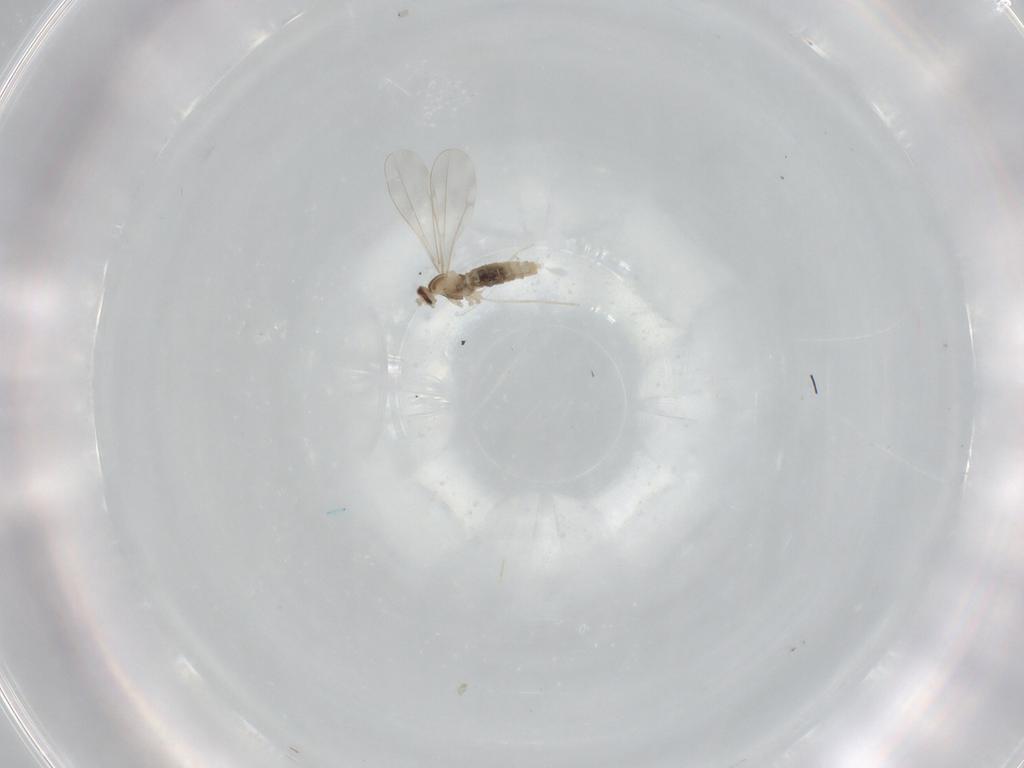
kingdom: Animalia
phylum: Arthropoda
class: Insecta
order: Diptera
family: Cecidomyiidae
